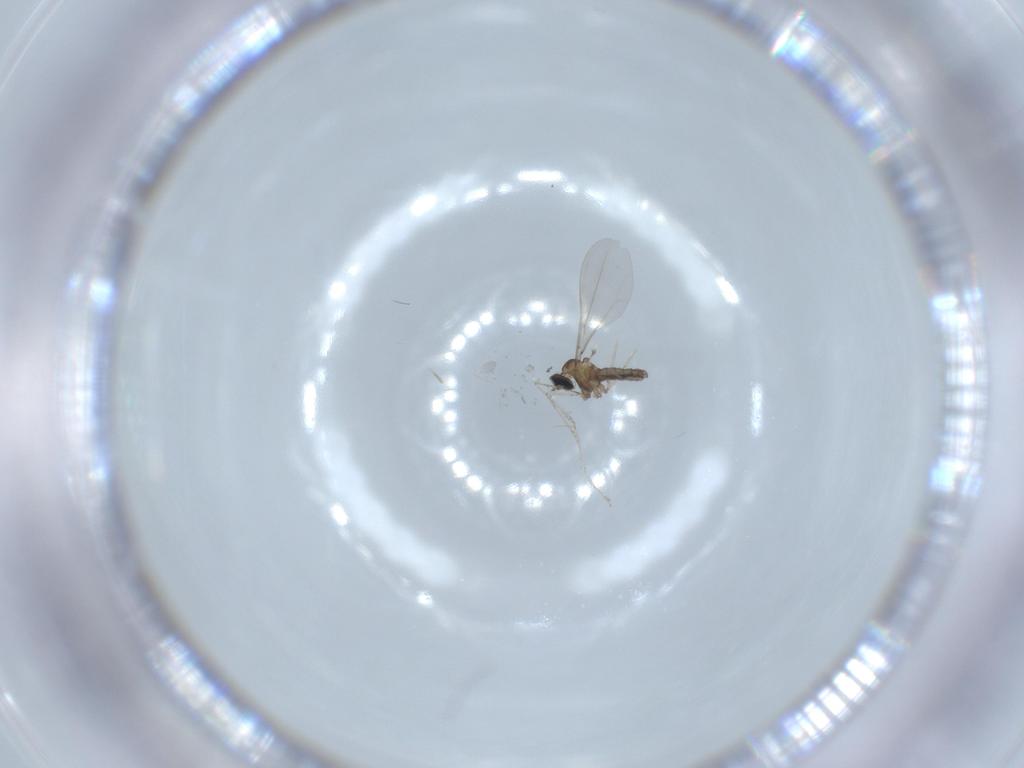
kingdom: Animalia
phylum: Arthropoda
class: Insecta
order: Diptera
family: Cecidomyiidae
